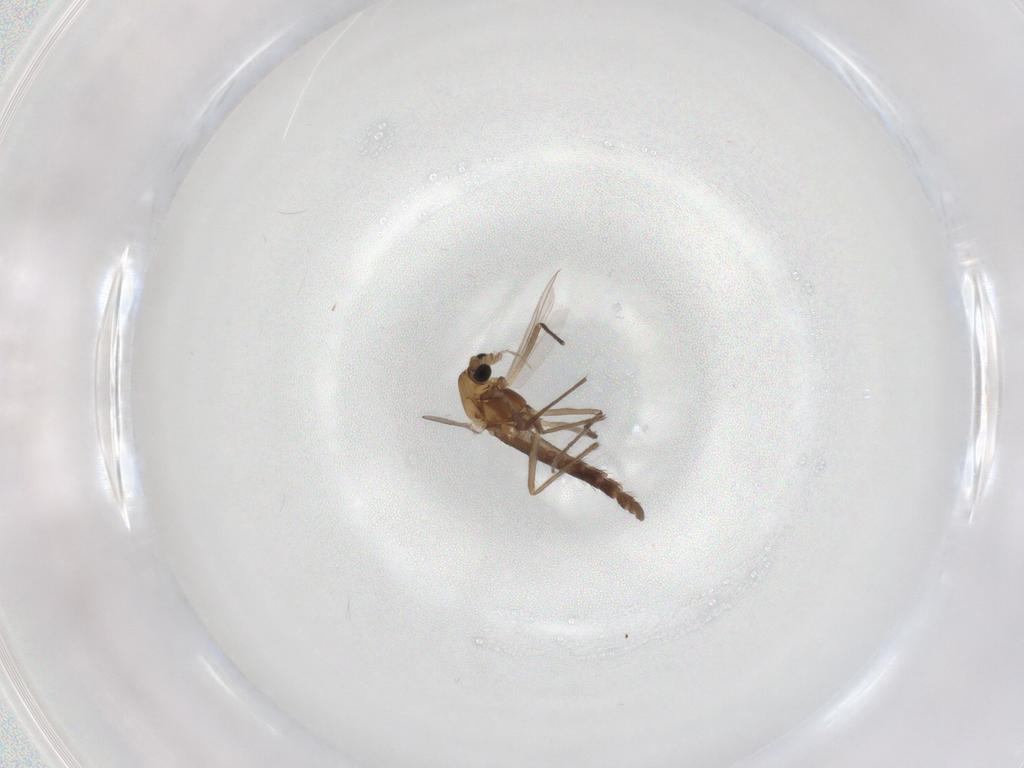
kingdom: Animalia
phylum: Arthropoda
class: Insecta
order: Diptera
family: Chironomidae
